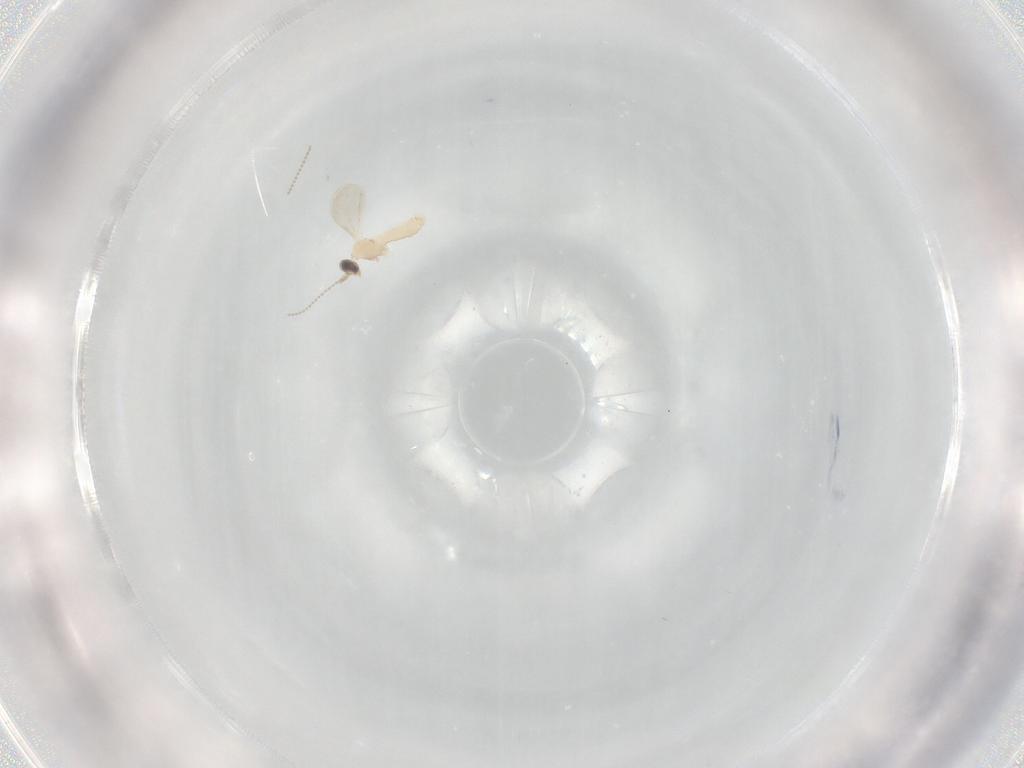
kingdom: Animalia
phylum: Arthropoda
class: Insecta
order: Diptera
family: Cecidomyiidae
